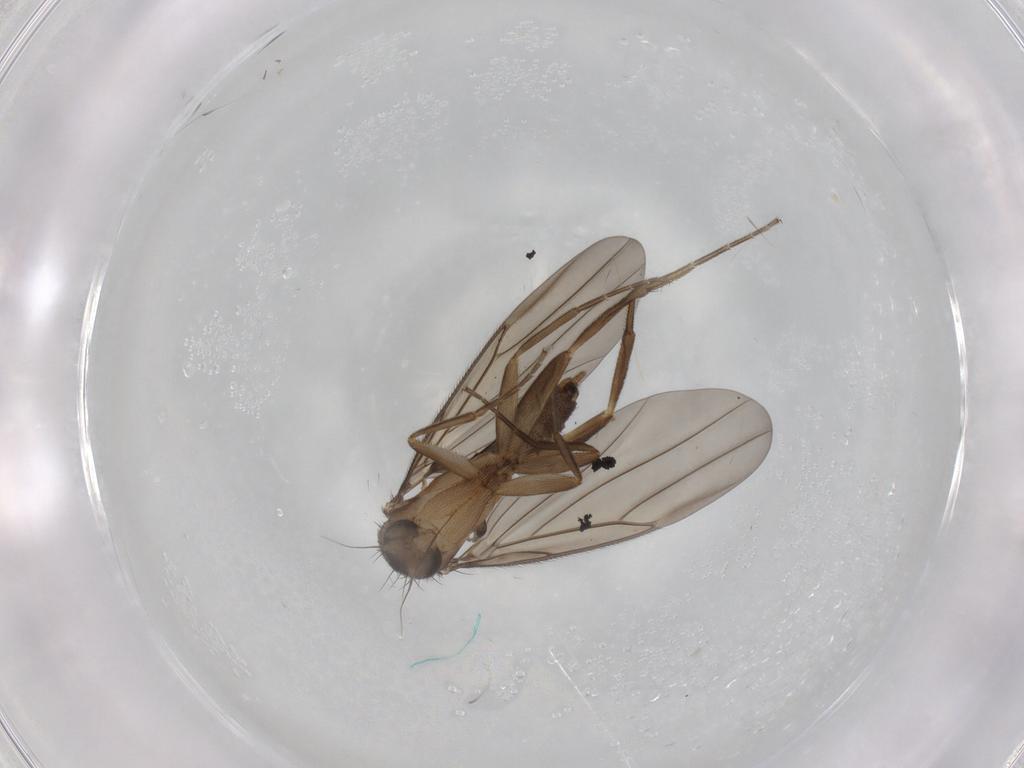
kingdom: Animalia
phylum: Arthropoda
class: Insecta
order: Diptera
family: Phoridae
